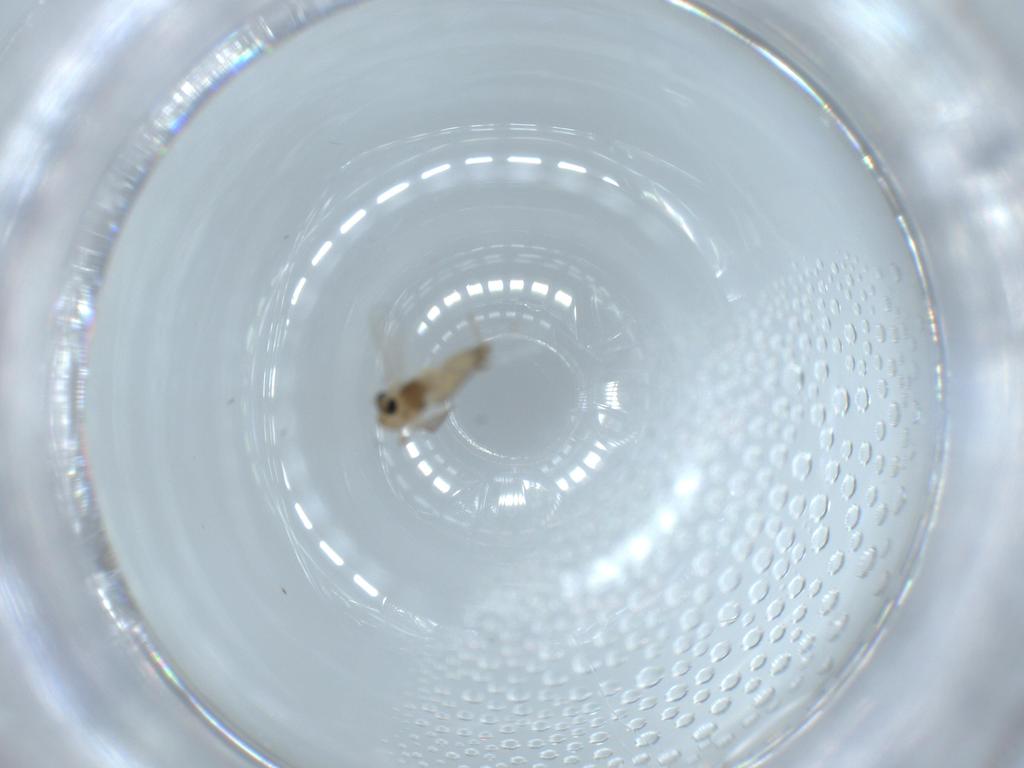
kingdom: Animalia
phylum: Arthropoda
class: Insecta
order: Diptera
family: Chironomidae
